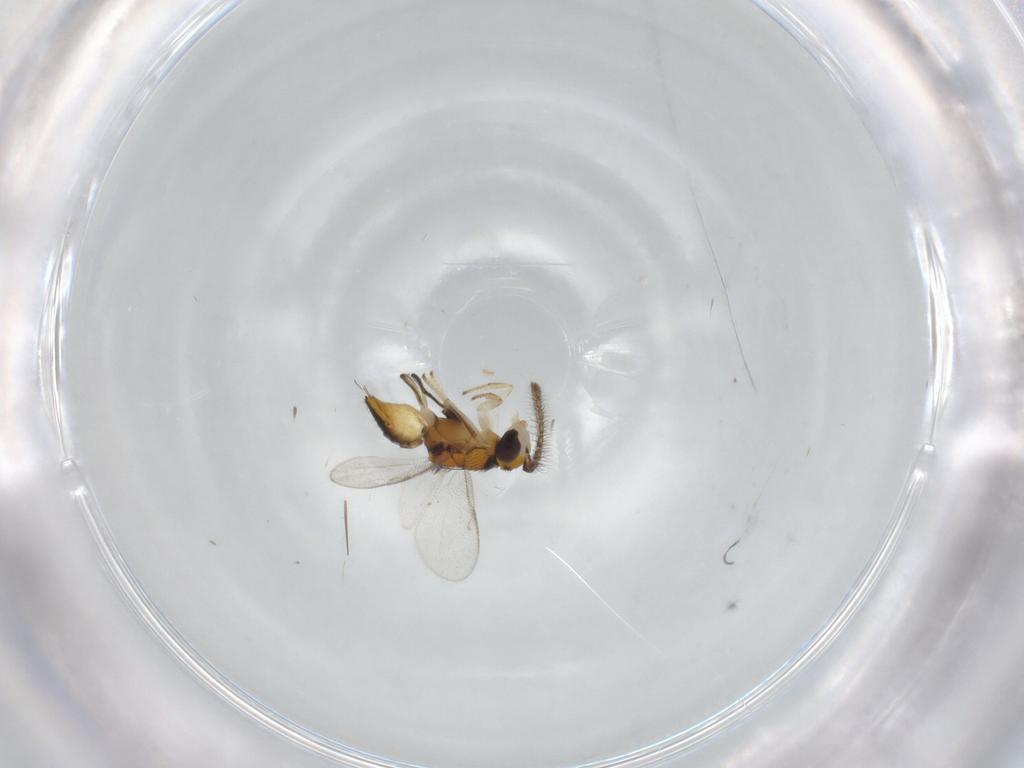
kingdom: Animalia
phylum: Arthropoda
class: Insecta
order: Hymenoptera
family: Encyrtidae
